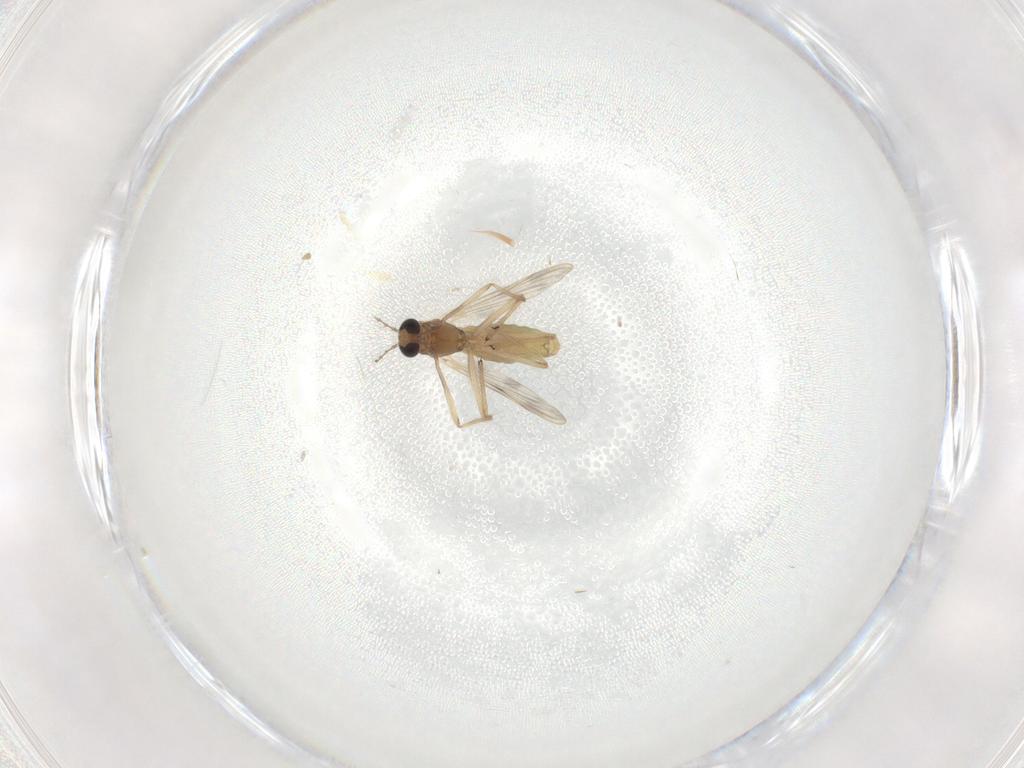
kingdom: Animalia
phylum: Arthropoda
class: Insecta
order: Diptera
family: Chironomidae
